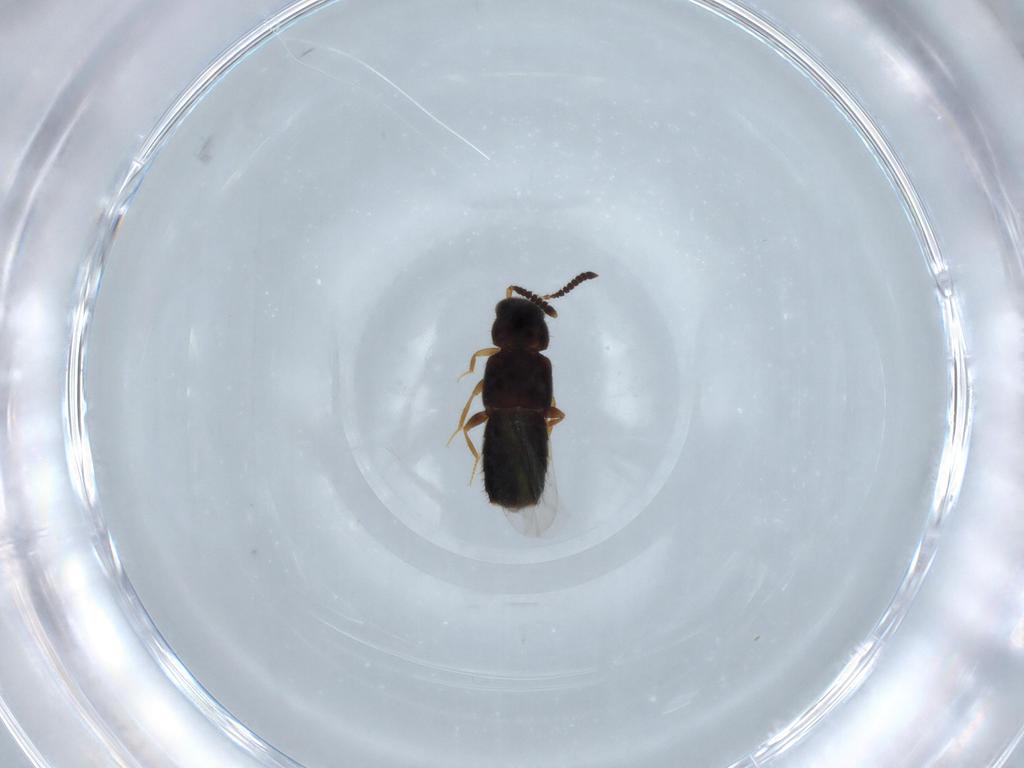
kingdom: Animalia
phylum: Arthropoda
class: Insecta
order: Coleoptera
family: Staphylinidae
